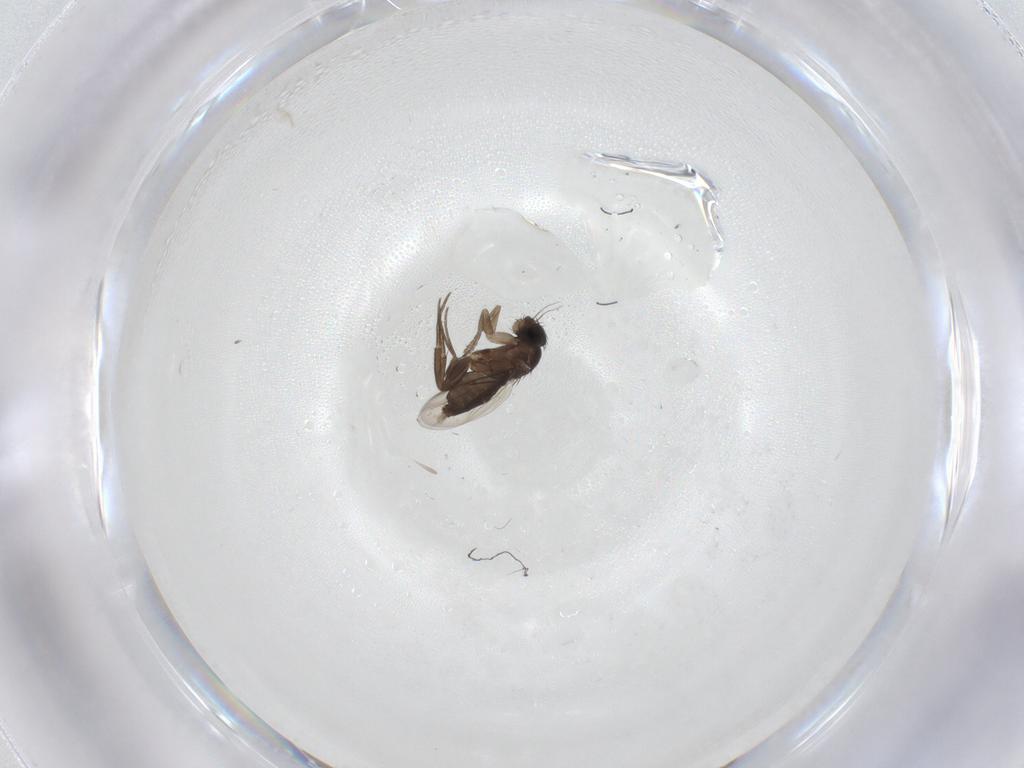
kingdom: Animalia
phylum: Arthropoda
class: Insecta
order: Diptera
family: Phoridae
